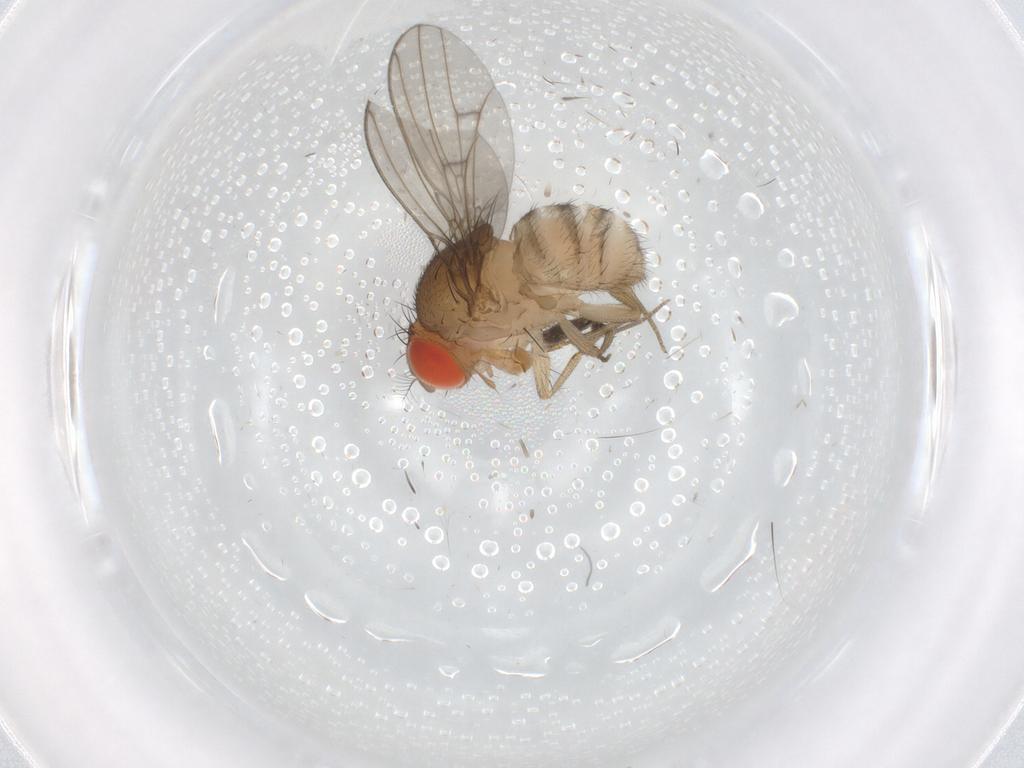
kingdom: Animalia
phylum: Arthropoda
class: Insecta
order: Diptera
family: Drosophilidae
